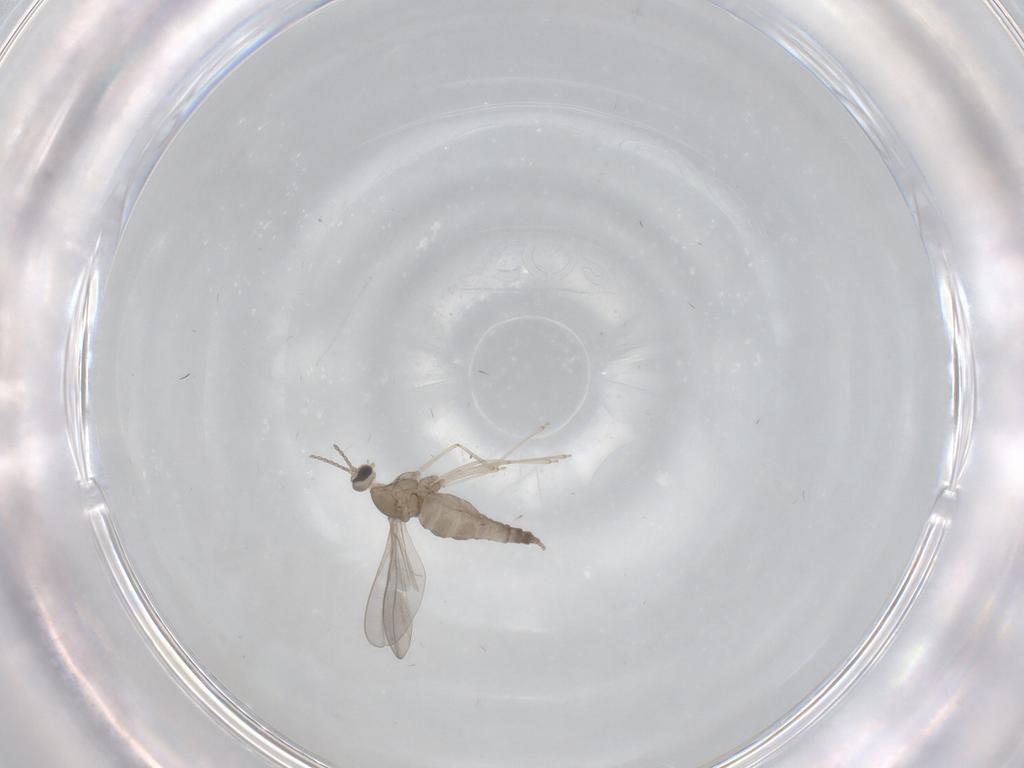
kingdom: Animalia
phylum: Arthropoda
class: Insecta
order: Diptera
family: Cecidomyiidae
